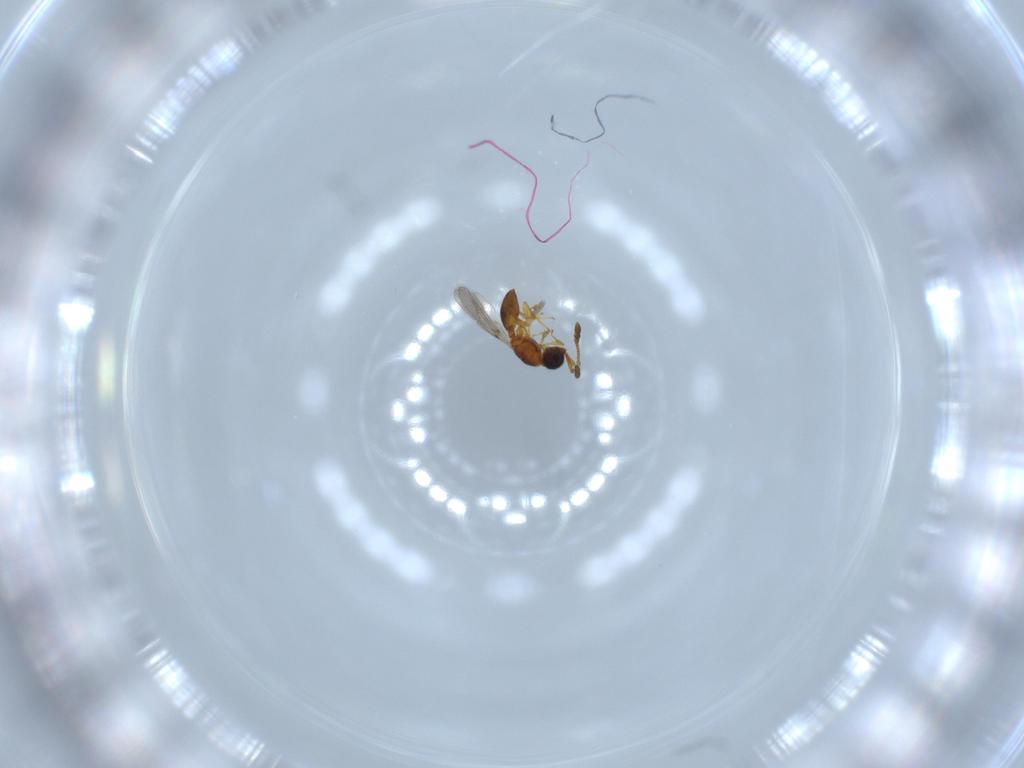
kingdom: Animalia
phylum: Arthropoda
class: Insecta
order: Hymenoptera
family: Diapriidae
